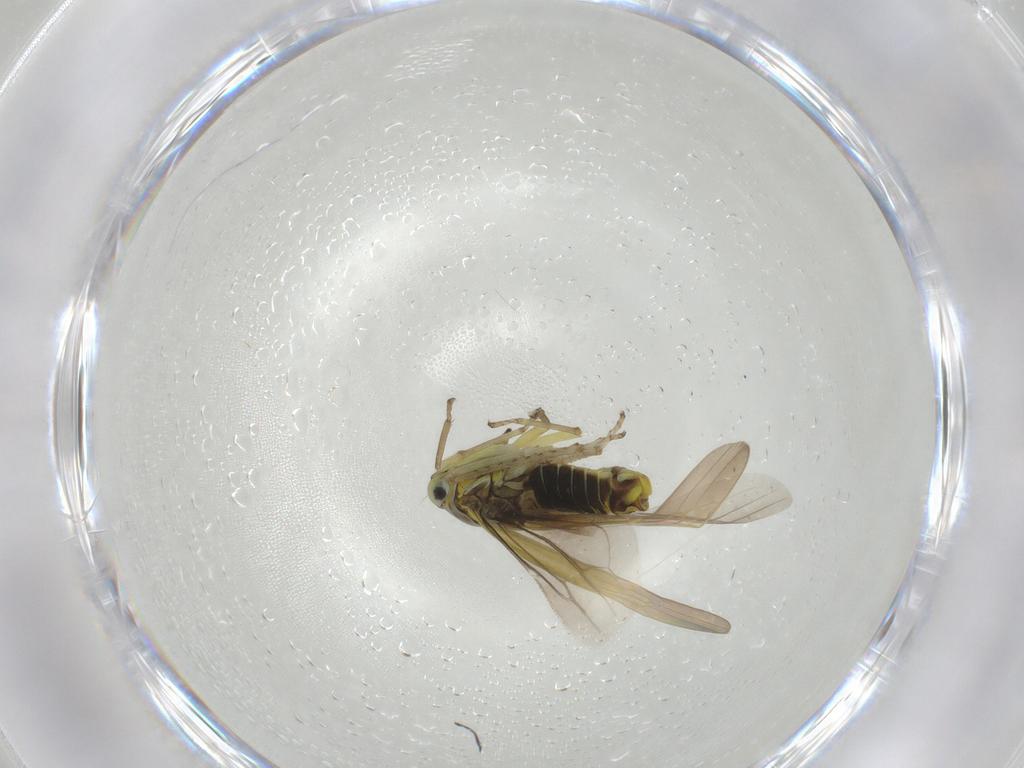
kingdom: Animalia
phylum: Arthropoda
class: Insecta
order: Hemiptera
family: Cicadellidae
